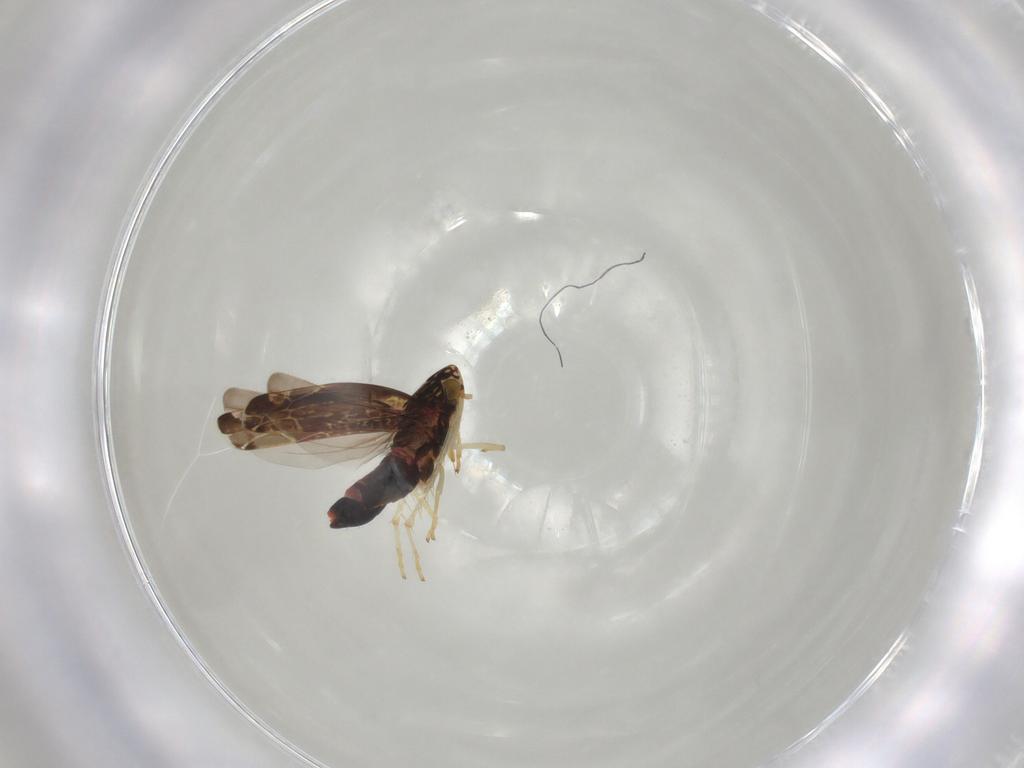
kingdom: Animalia
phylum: Arthropoda
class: Insecta
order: Hemiptera
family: Cicadellidae
